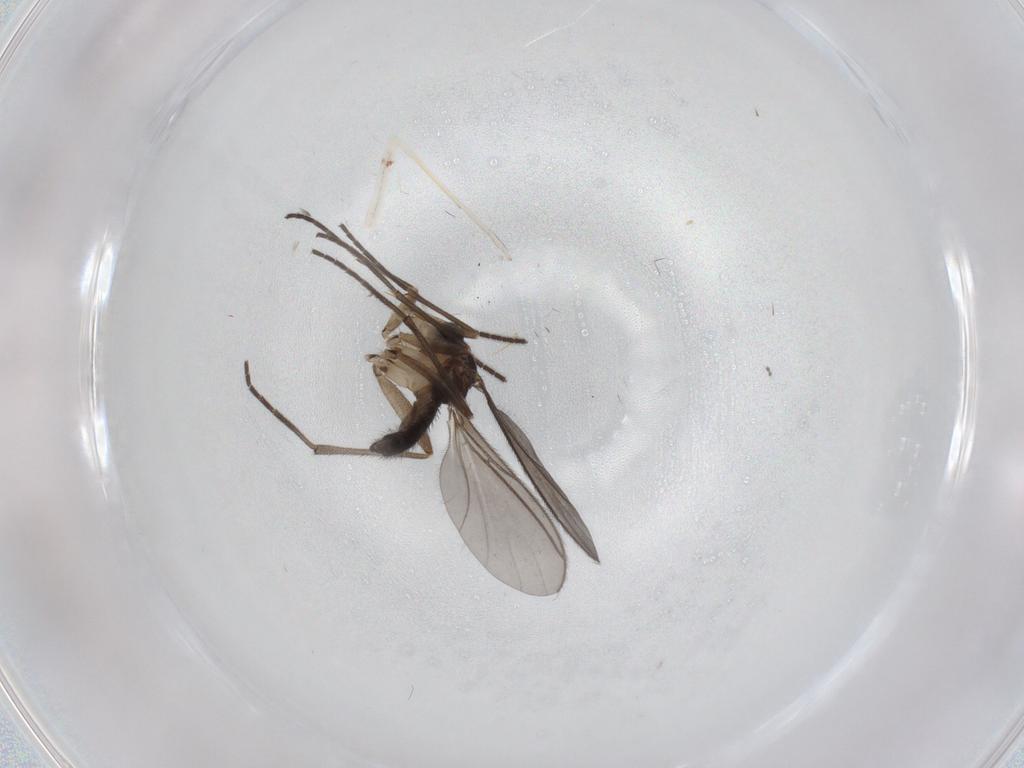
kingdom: Animalia
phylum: Arthropoda
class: Insecta
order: Diptera
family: Sciaridae
